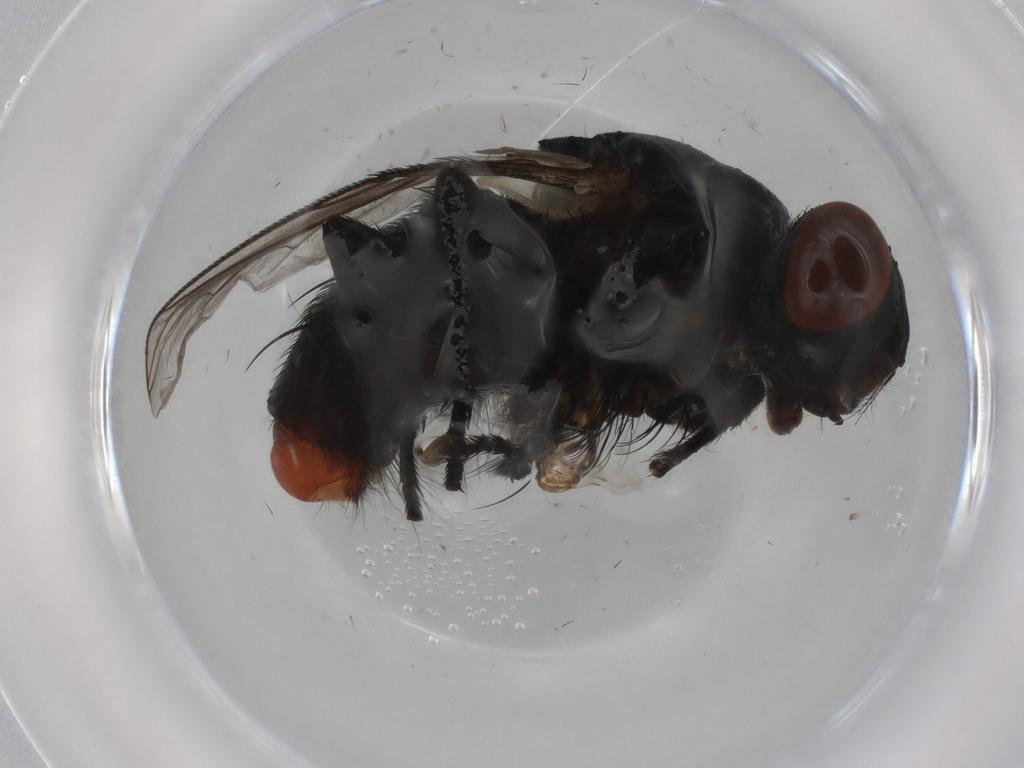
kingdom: Animalia
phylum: Arthropoda
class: Insecta
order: Diptera
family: Sarcophagidae
